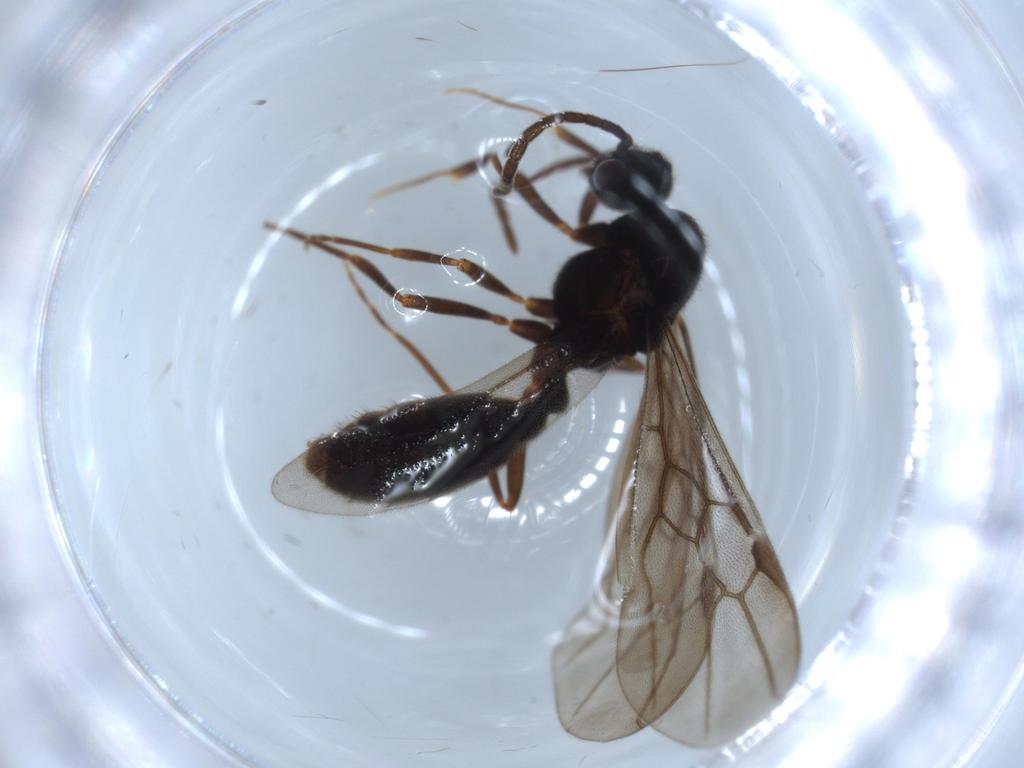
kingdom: Animalia
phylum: Arthropoda
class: Insecta
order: Hymenoptera
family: Formicidae
